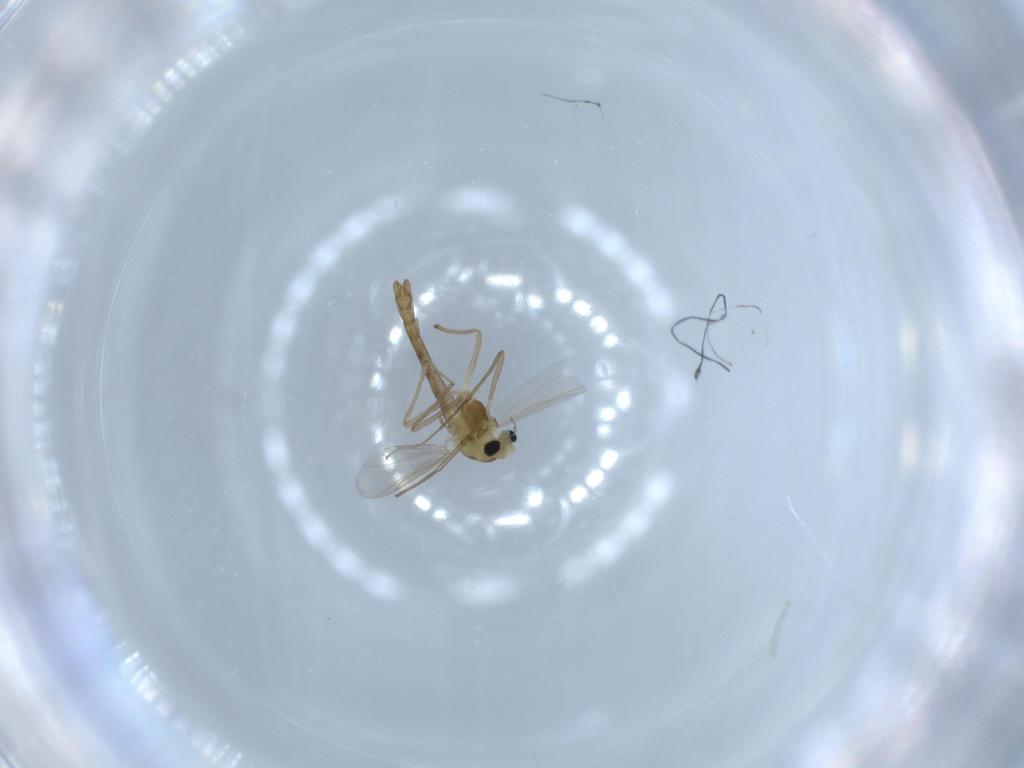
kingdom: Animalia
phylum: Arthropoda
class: Insecta
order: Diptera
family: Chironomidae
